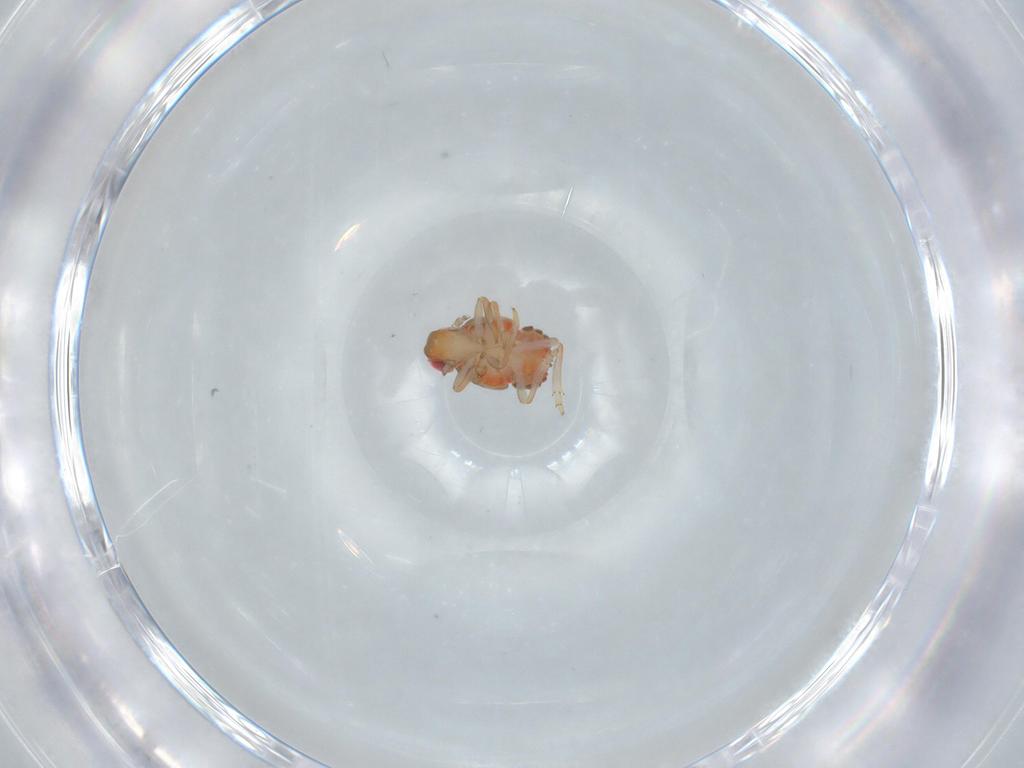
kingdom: Animalia
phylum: Arthropoda
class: Insecta
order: Hemiptera
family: Issidae
